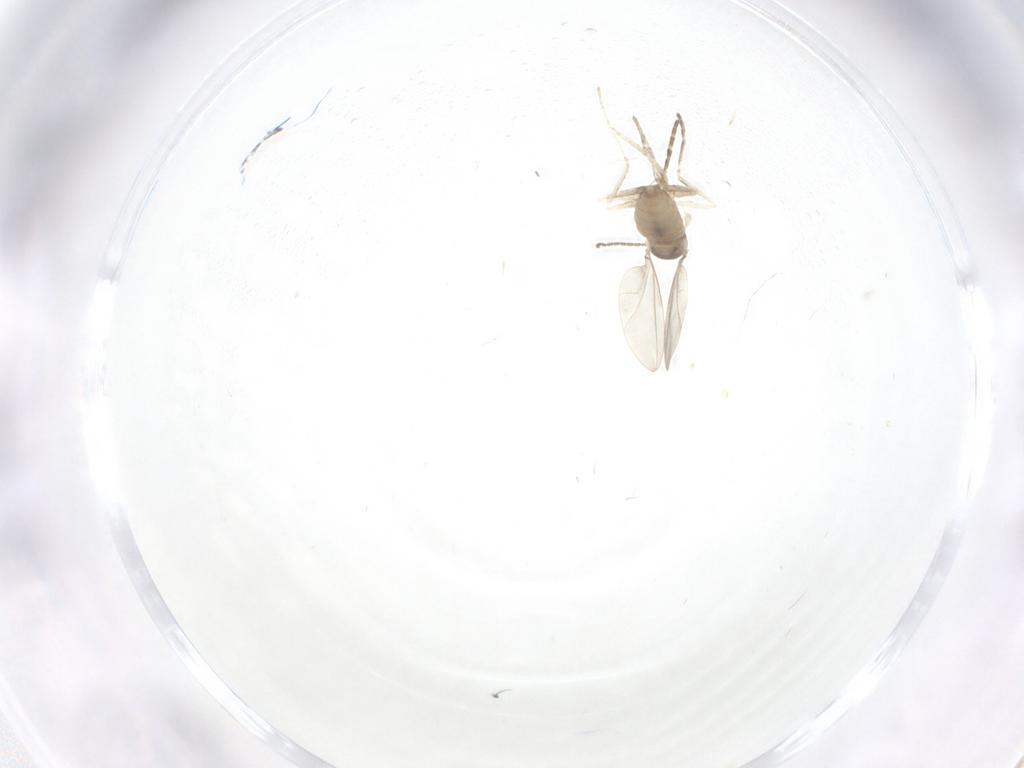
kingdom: Animalia
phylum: Arthropoda
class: Insecta
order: Diptera
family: Cecidomyiidae
